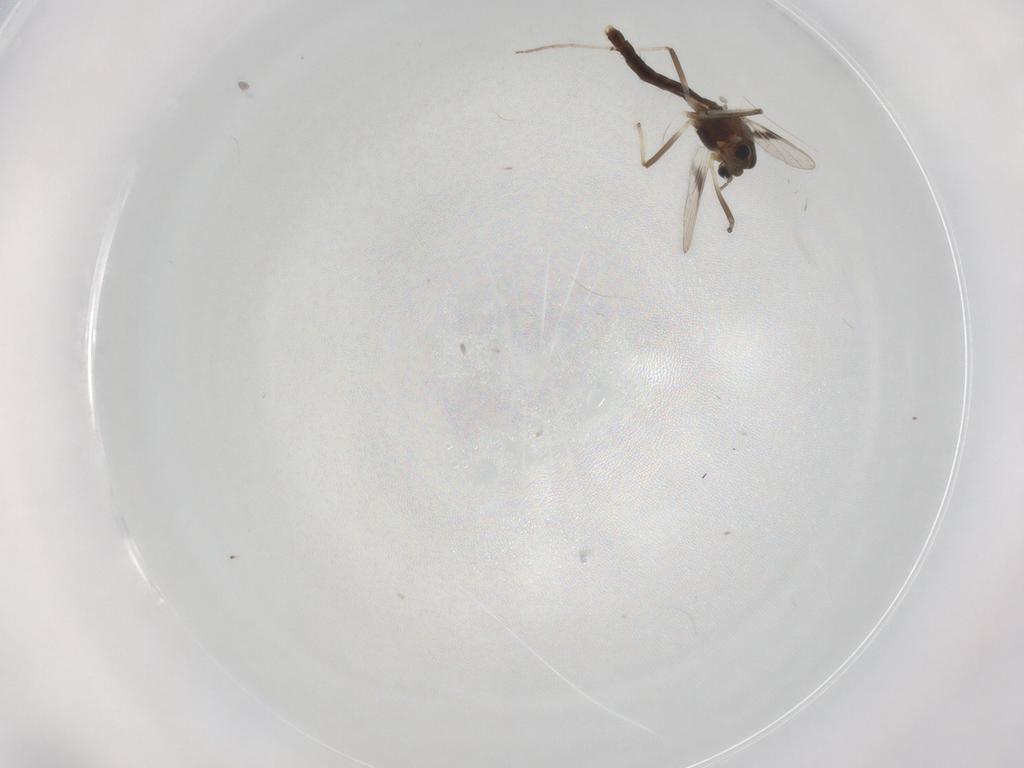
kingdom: Animalia
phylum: Arthropoda
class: Insecta
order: Diptera
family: Chironomidae
